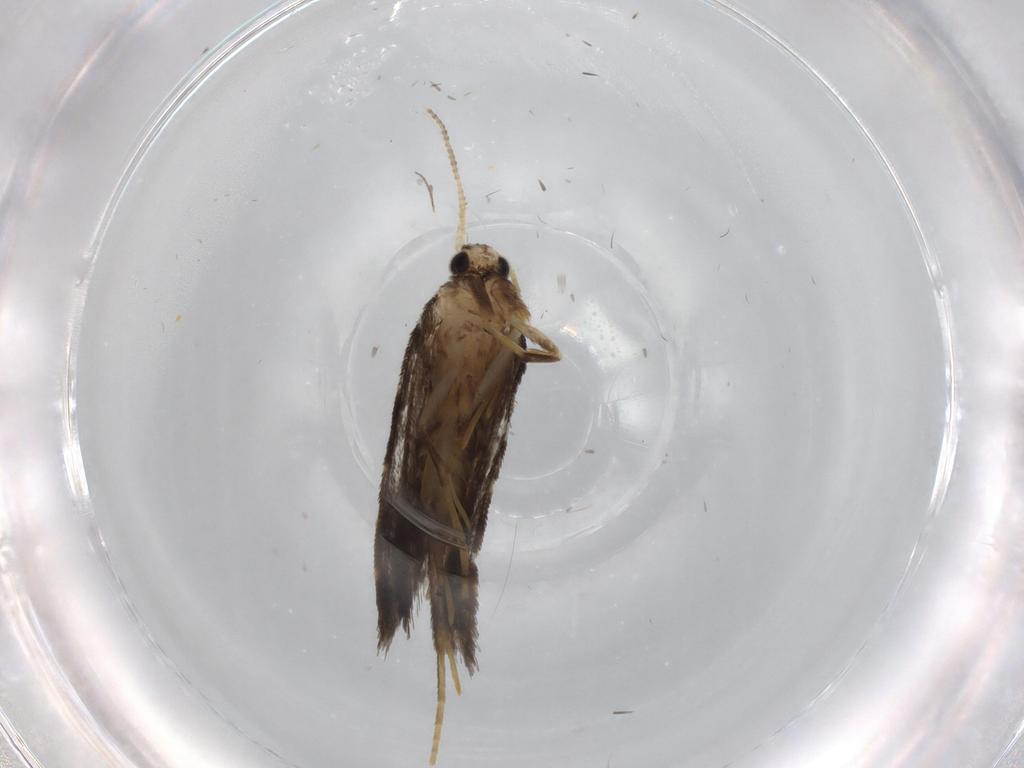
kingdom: Animalia
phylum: Arthropoda
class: Insecta
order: Lepidoptera
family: Psychidae
